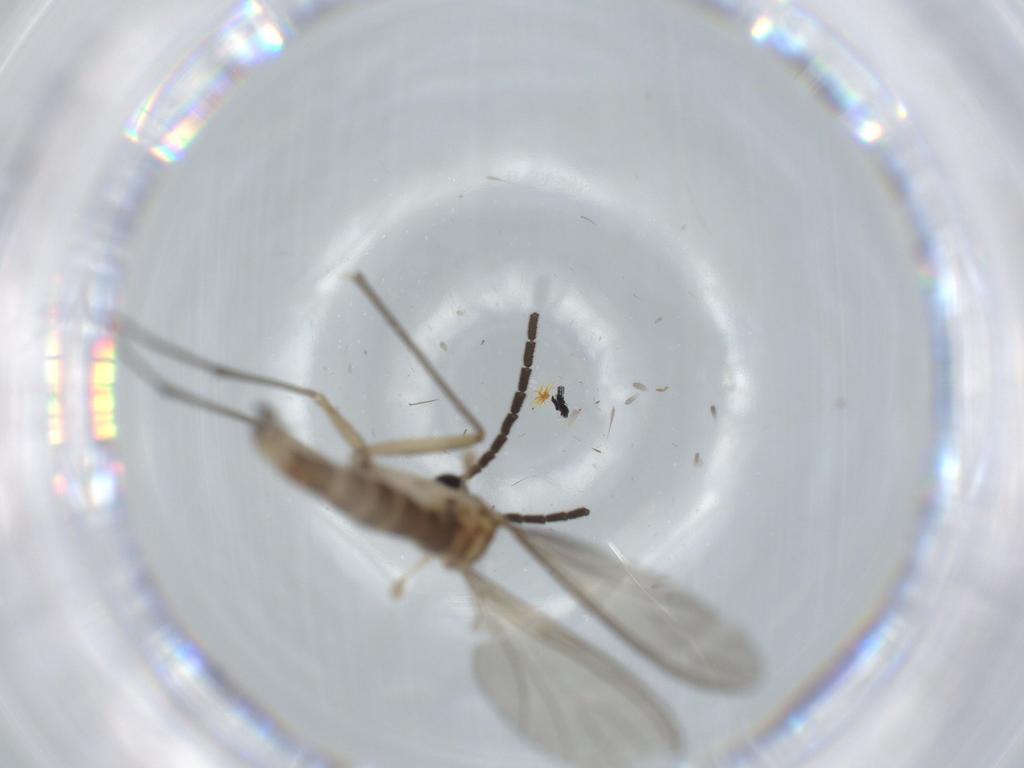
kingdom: Animalia
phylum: Arthropoda
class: Insecta
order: Diptera
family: Sciaridae
